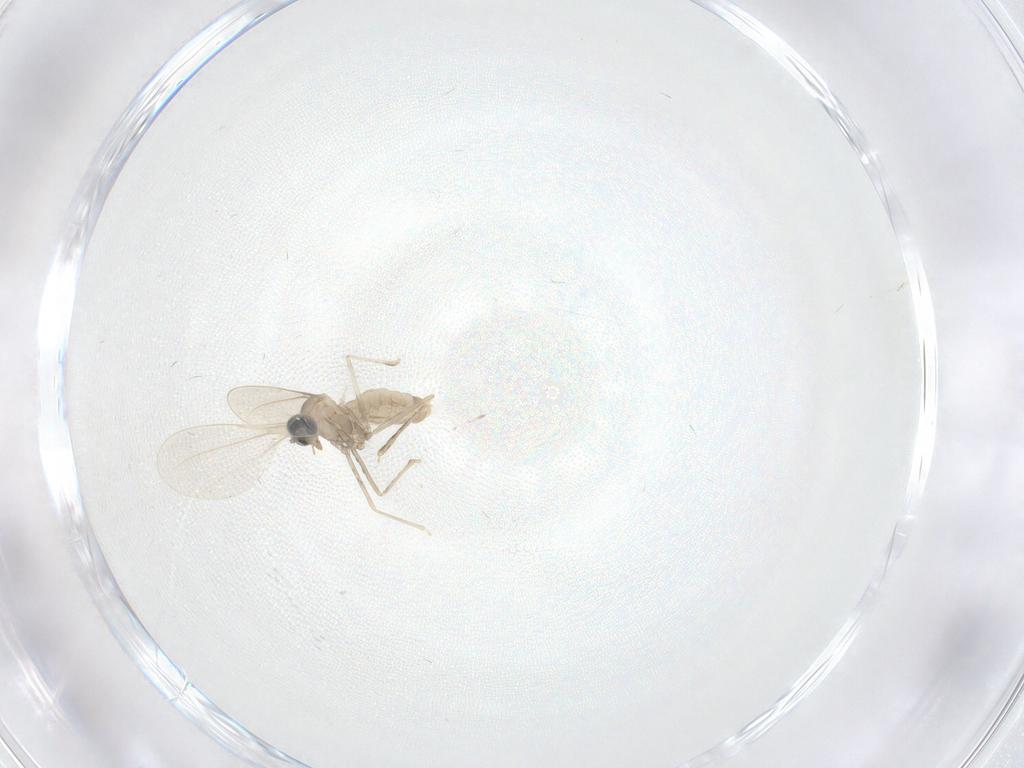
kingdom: Animalia
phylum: Arthropoda
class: Insecta
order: Diptera
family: Cecidomyiidae
